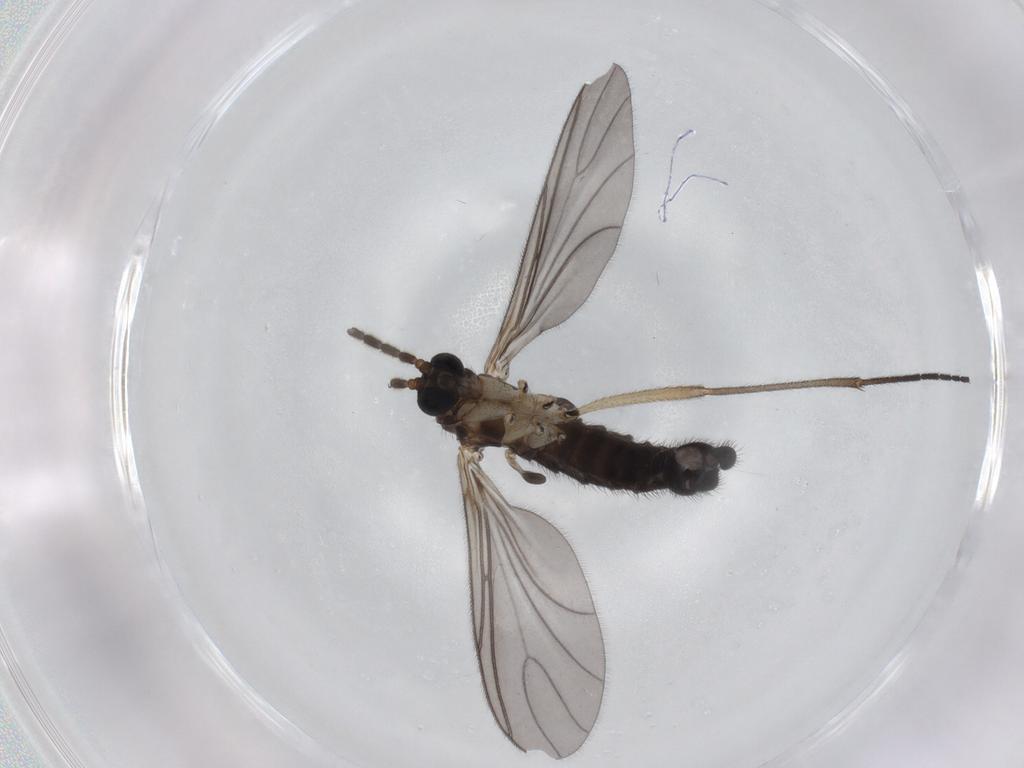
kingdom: Animalia
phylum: Arthropoda
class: Insecta
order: Diptera
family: Sciaridae
